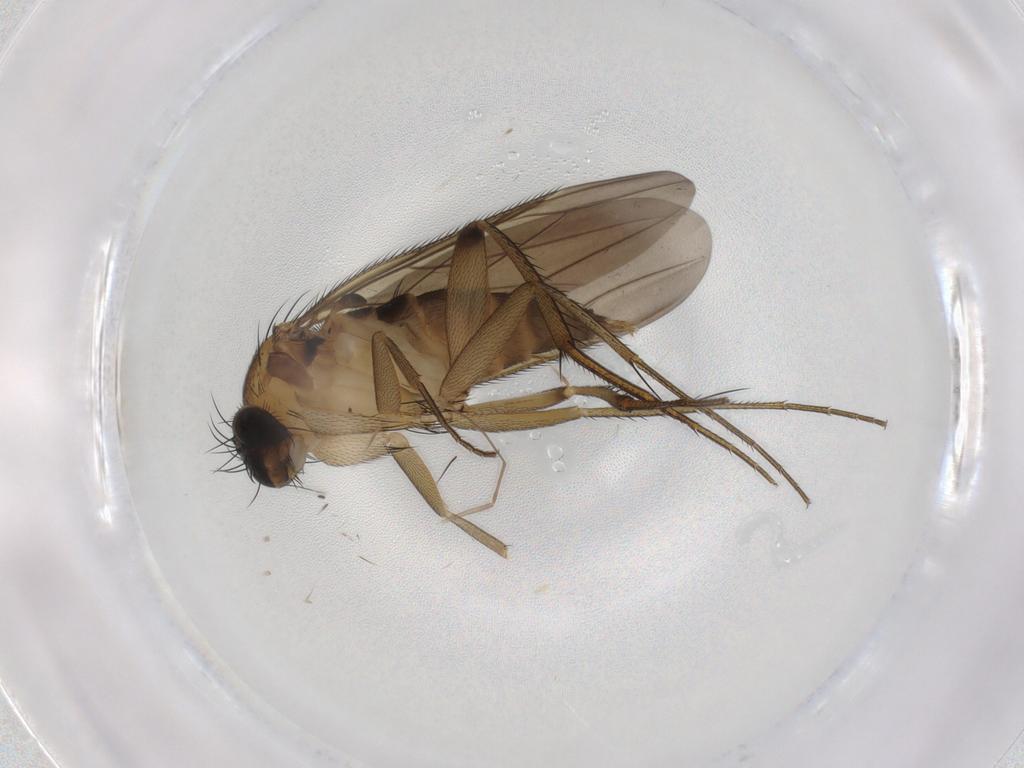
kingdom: Animalia
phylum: Arthropoda
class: Insecta
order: Diptera
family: Phoridae
